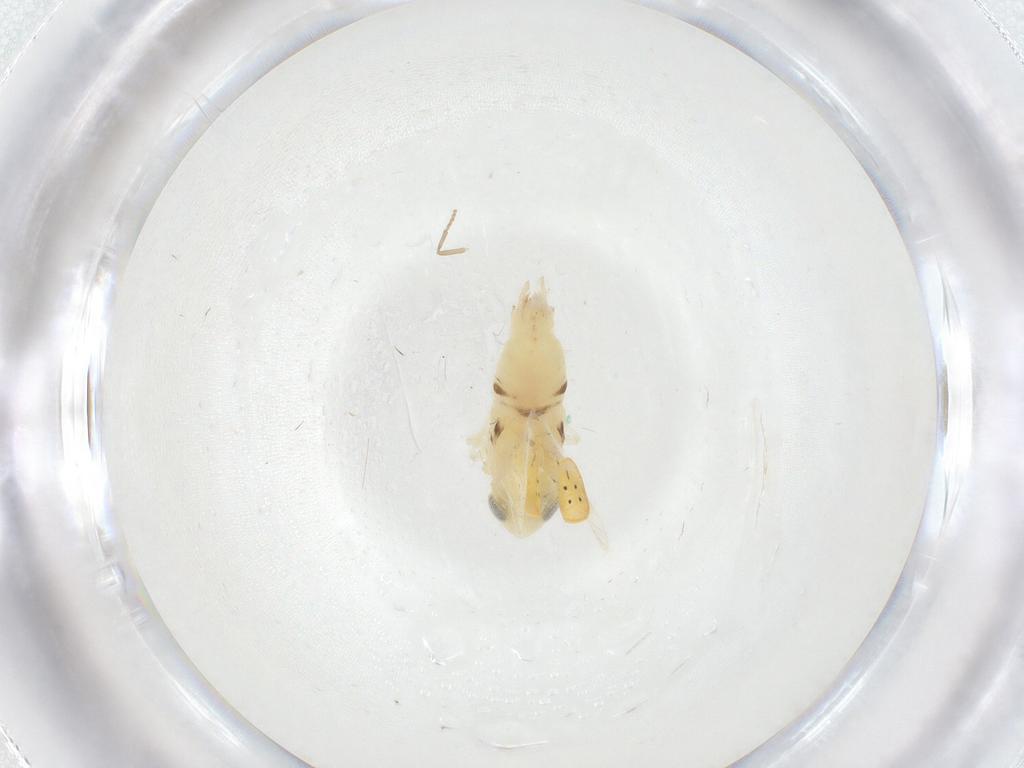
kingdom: Animalia
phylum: Arthropoda
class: Insecta
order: Hemiptera
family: Cicadellidae
